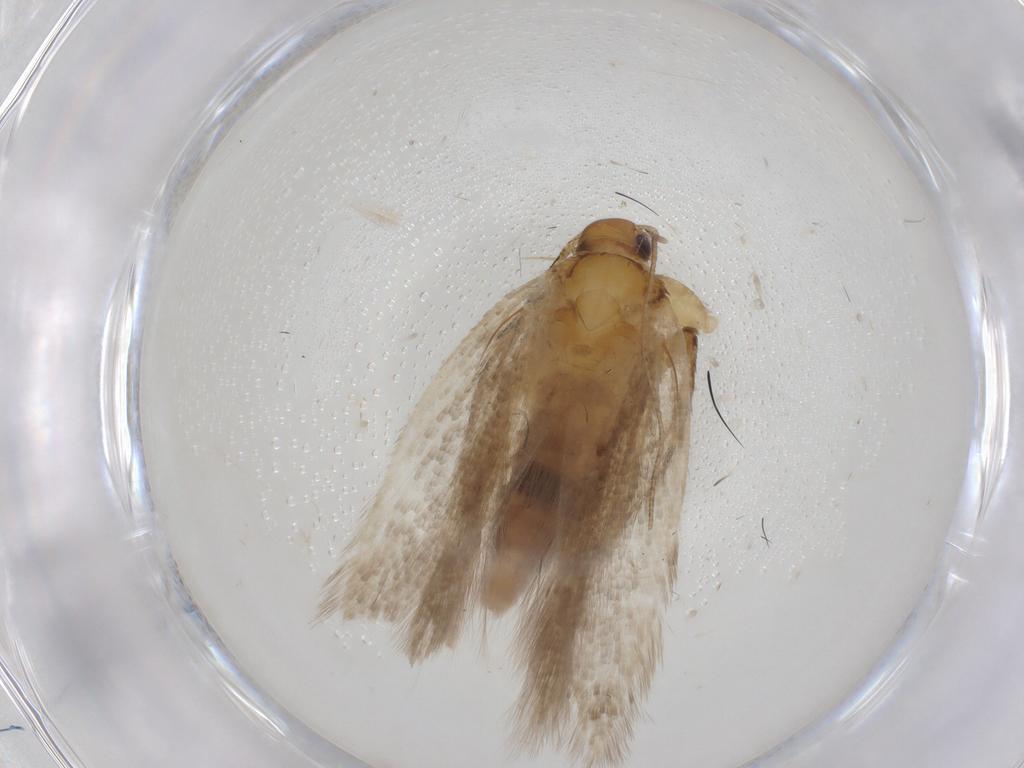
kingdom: Animalia
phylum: Arthropoda
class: Insecta
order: Lepidoptera
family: Gelechiidae
